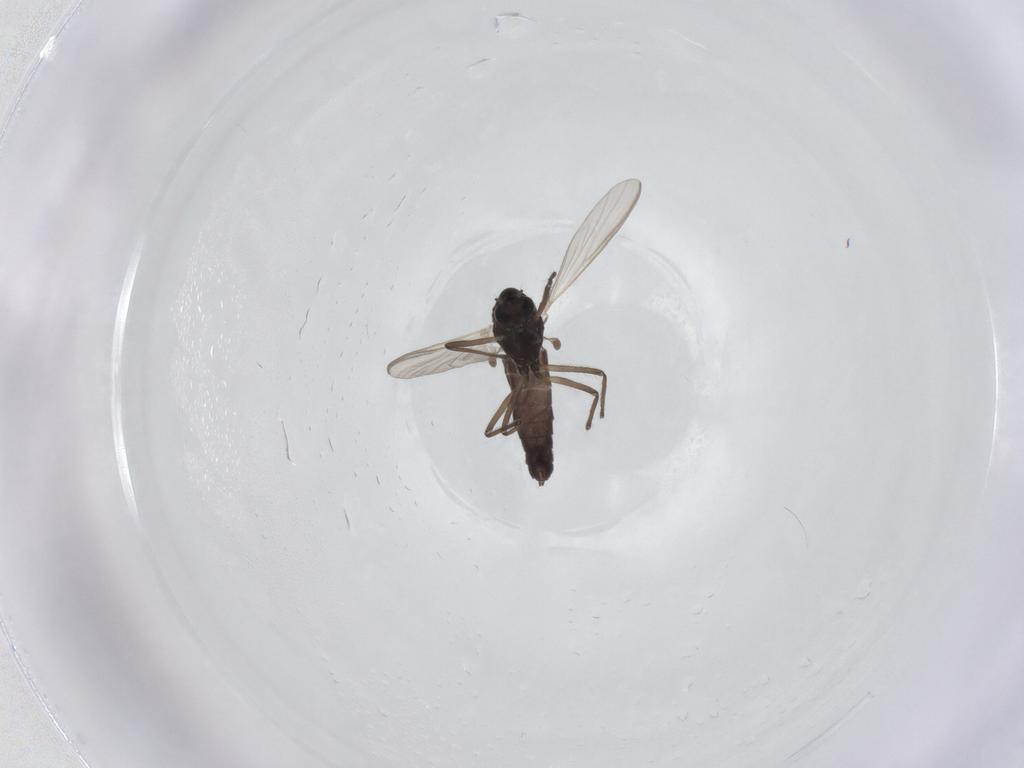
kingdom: Animalia
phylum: Arthropoda
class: Insecta
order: Diptera
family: Chironomidae
